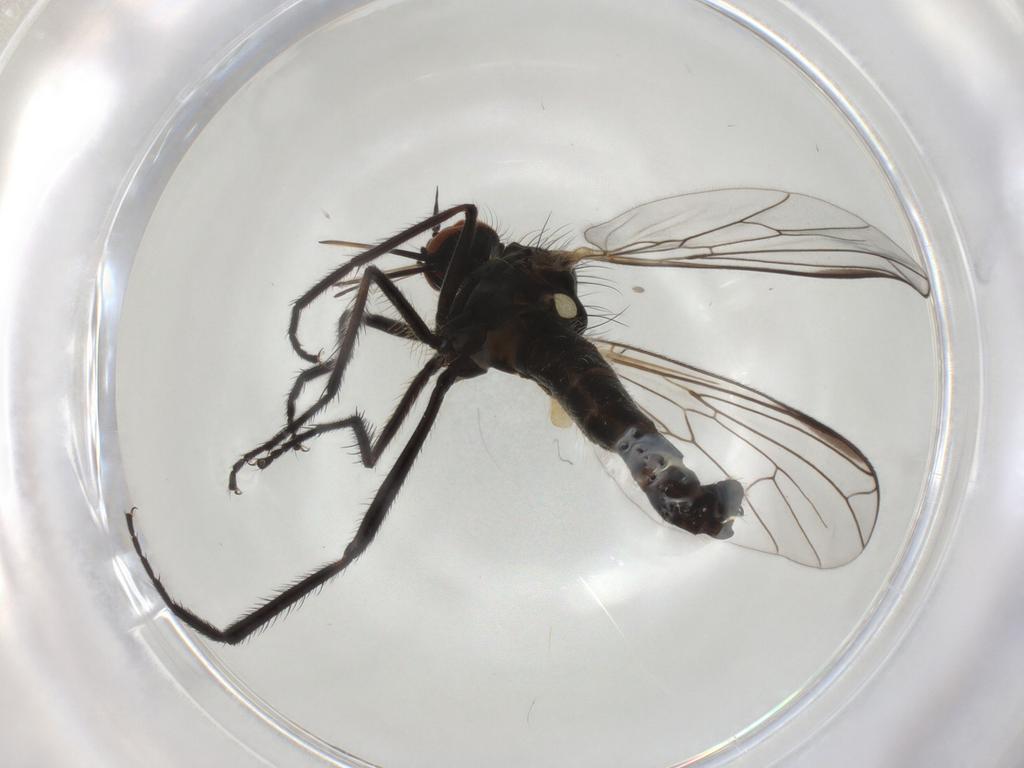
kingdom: Animalia
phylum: Arthropoda
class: Insecta
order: Diptera
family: Empididae
